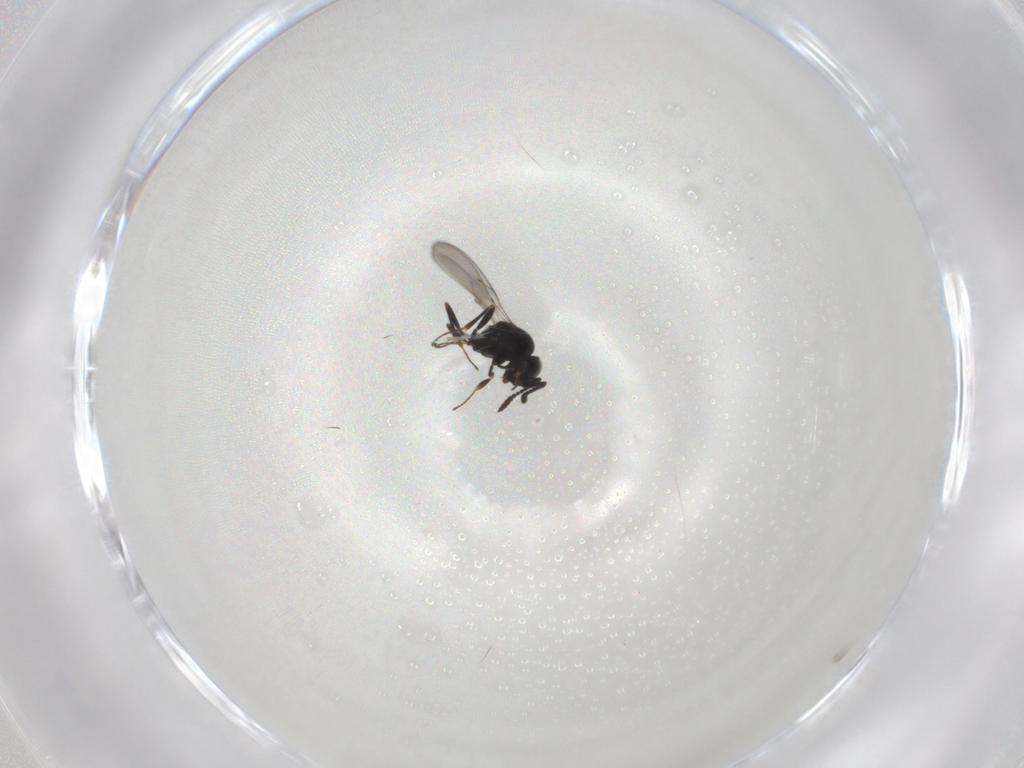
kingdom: Animalia
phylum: Arthropoda
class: Insecta
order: Hymenoptera
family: Scelionidae
